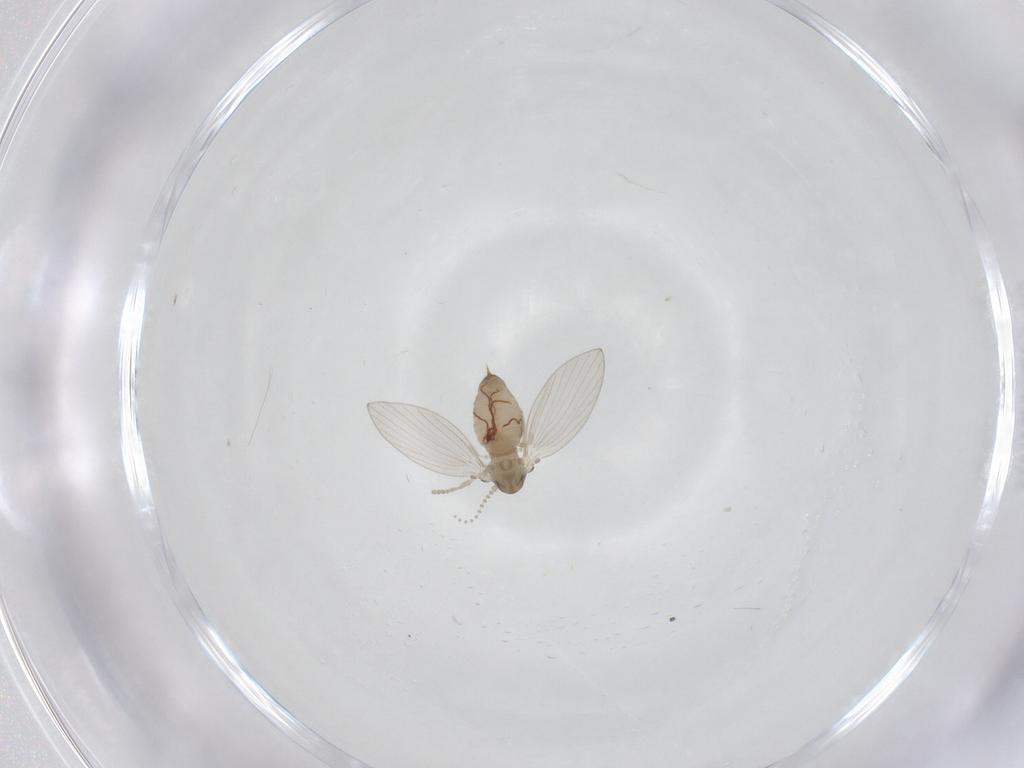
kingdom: Animalia
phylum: Arthropoda
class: Insecta
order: Diptera
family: Psychodidae
